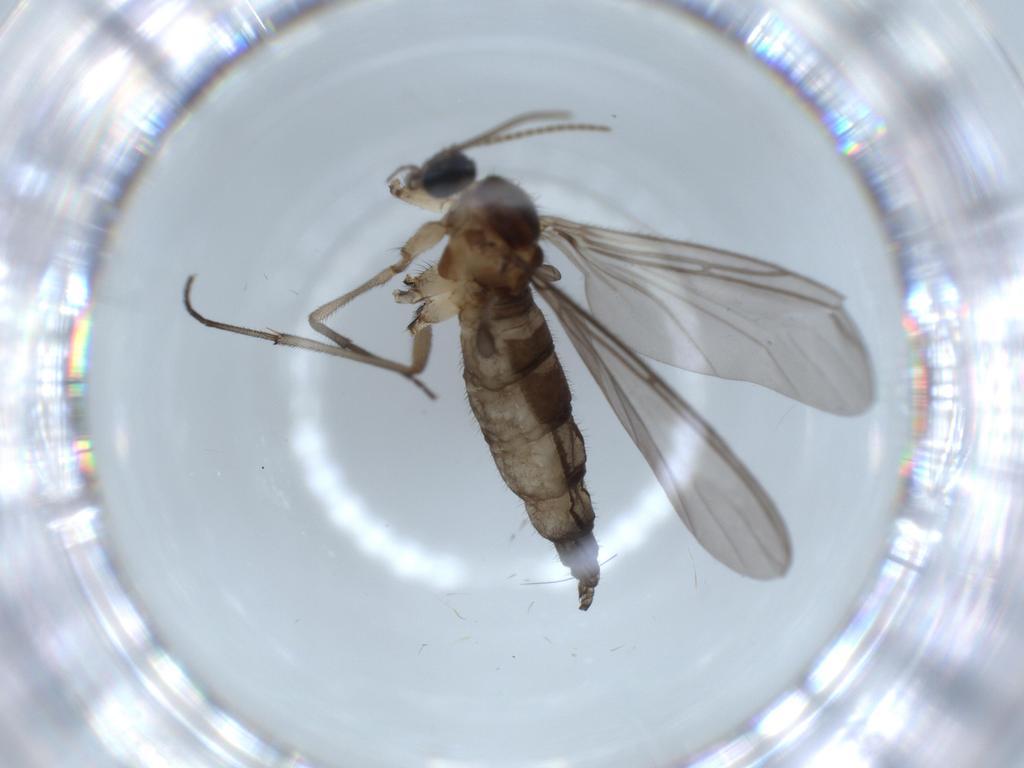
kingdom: Animalia
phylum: Arthropoda
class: Insecta
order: Diptera
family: Sciaridae
